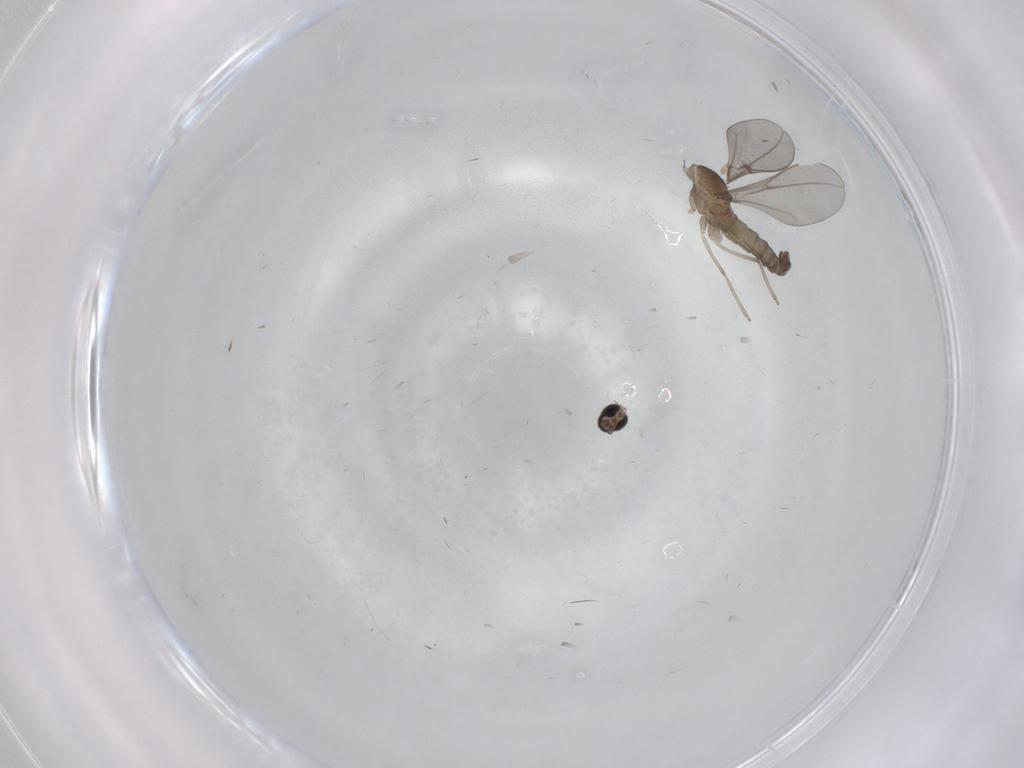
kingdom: Animalia
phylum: Arthropoda
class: Insecta
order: Diptera
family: Cecidomyiidae
